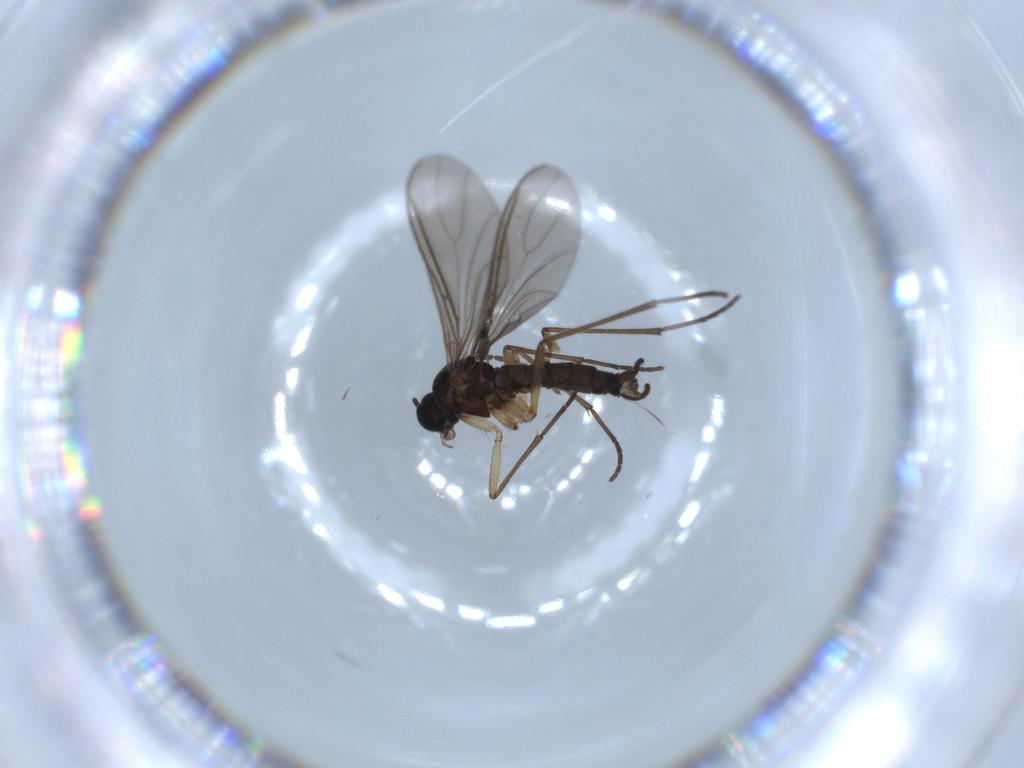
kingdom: Animalia
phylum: Arthropoda
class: Insecta
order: Diptera
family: Sciaridae
